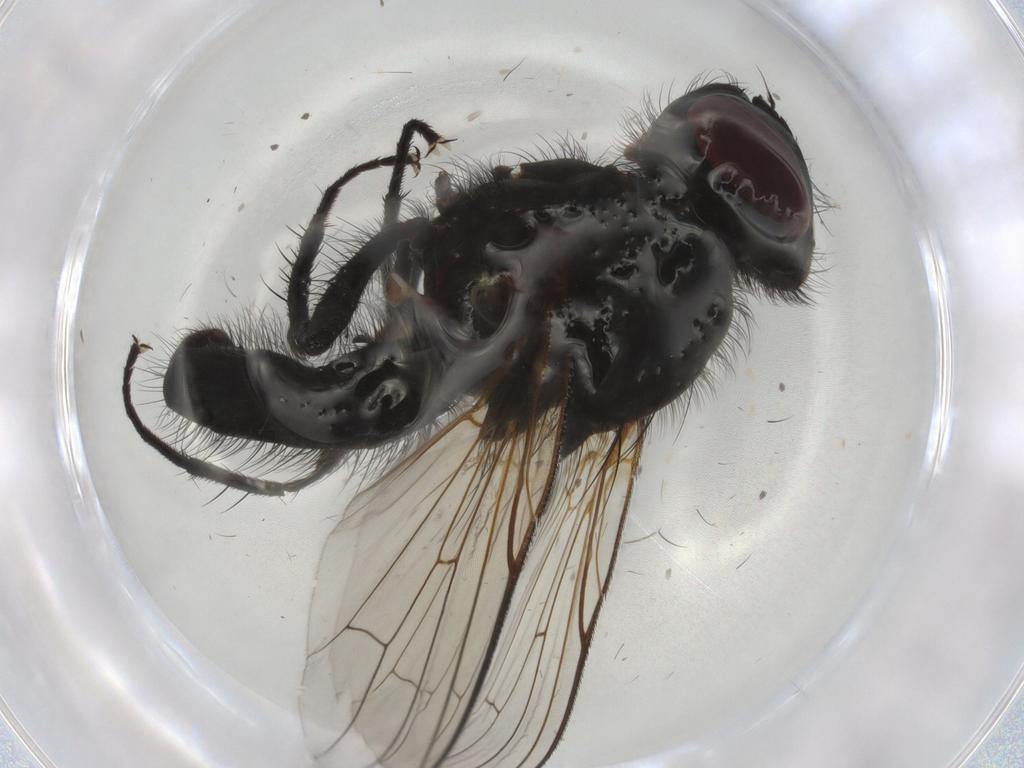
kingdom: Animalia
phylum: Arthropoda
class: Insecta
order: Diptera
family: Anthomyiidae
